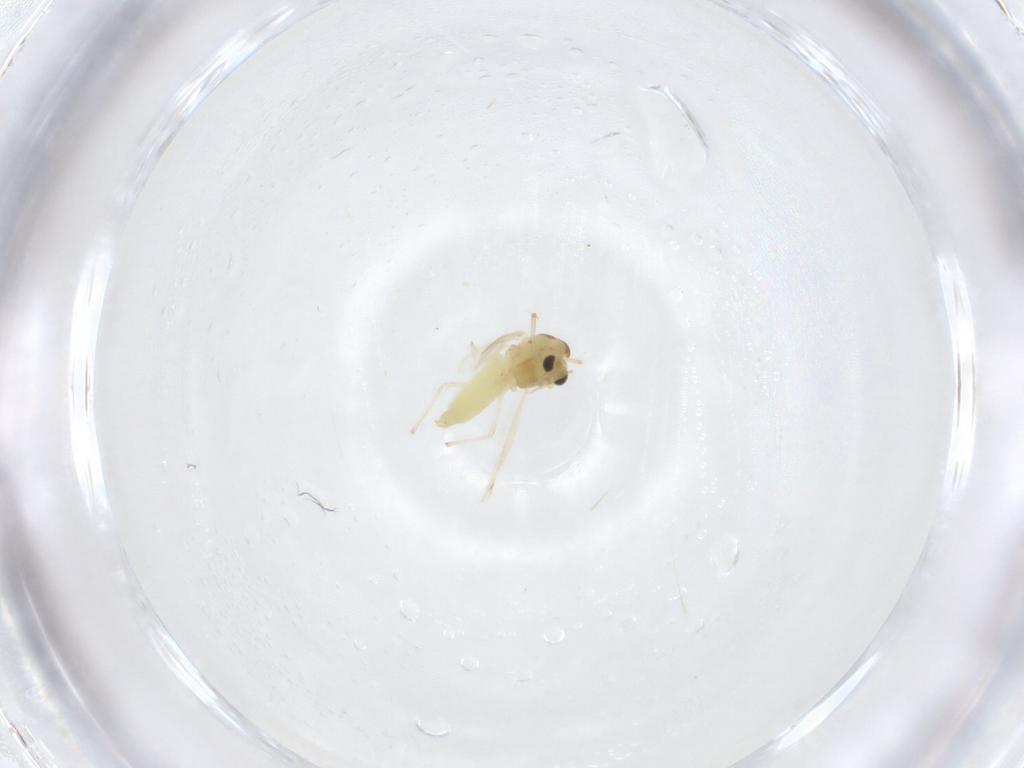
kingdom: Animalia
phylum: Arthropoda
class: Insecta
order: Diptera
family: Chironomidae
